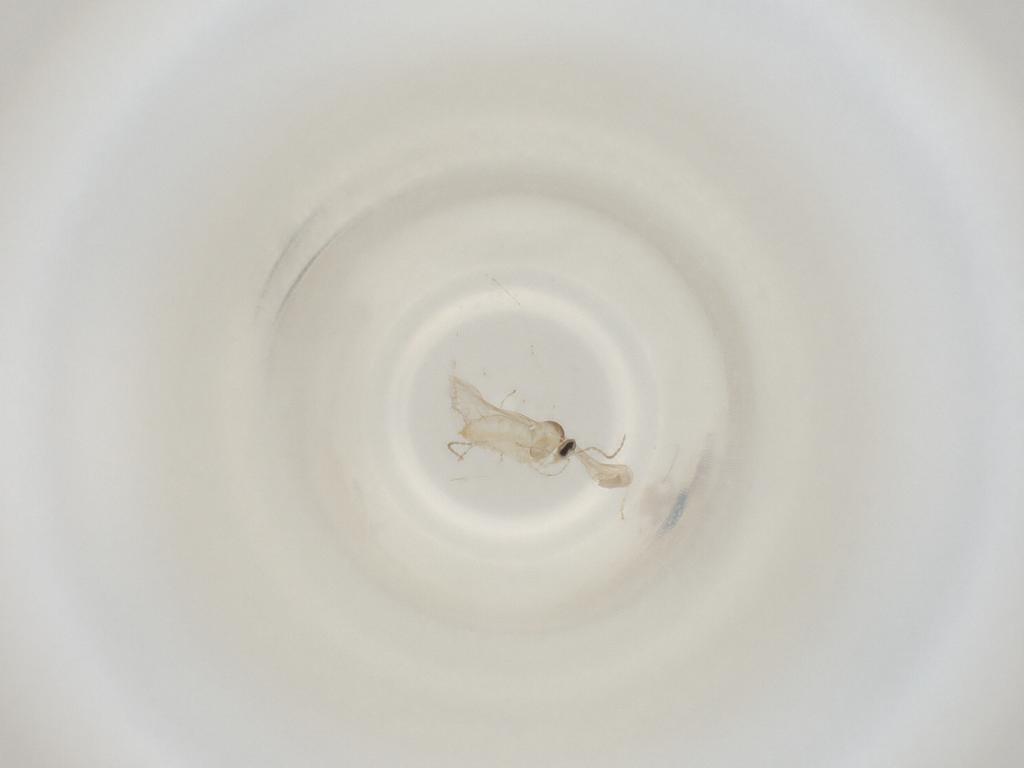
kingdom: Animalia
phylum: Arthropoda
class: Insecta
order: Diptera
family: Cecidomyiidae
